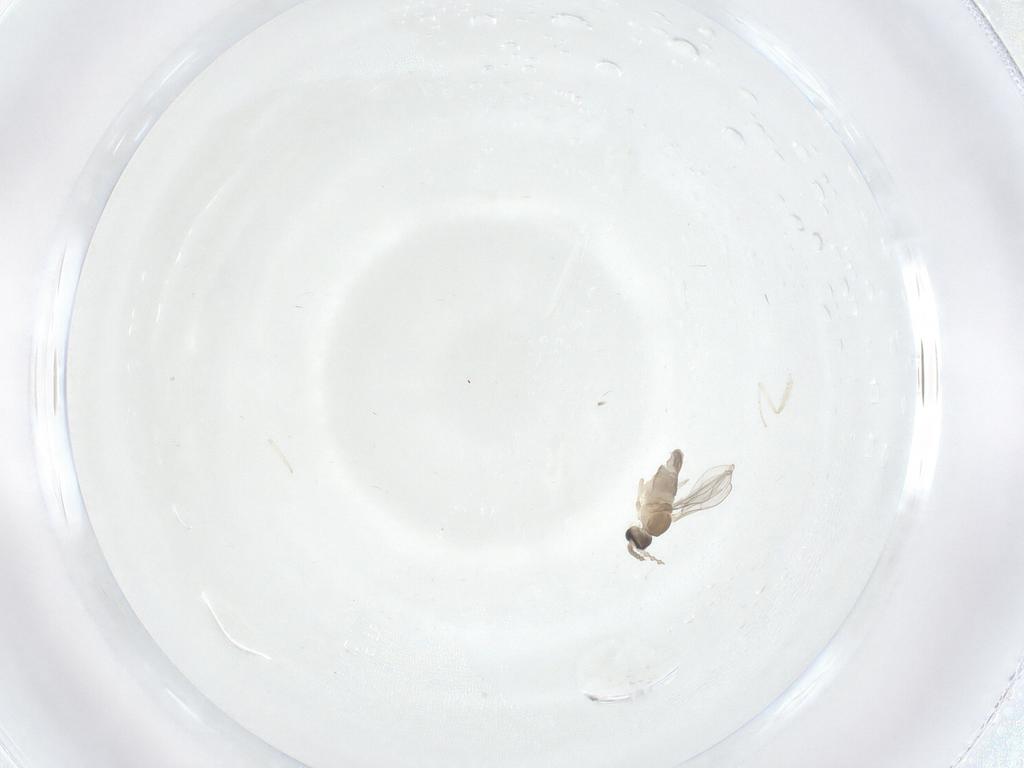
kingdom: Animalia
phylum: Arthropoda
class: Insecta
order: Diptera
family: Cecidomyiidae
